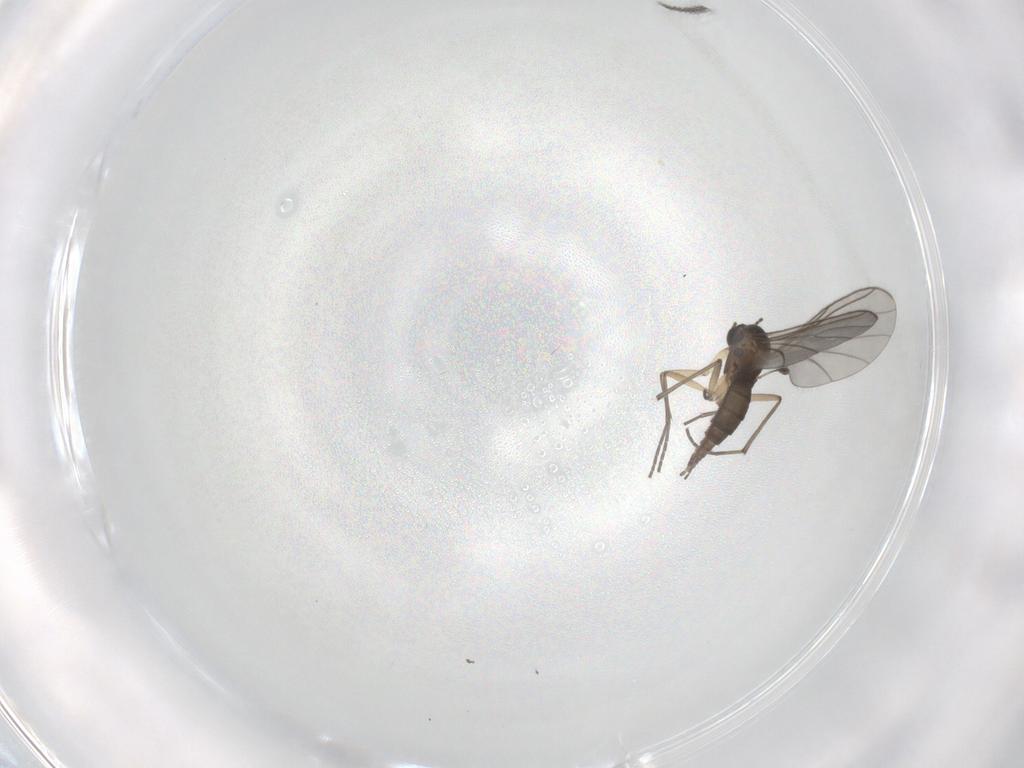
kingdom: Animalia
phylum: Arthropoda
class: Insecta
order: Diptera
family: Sciaridae
